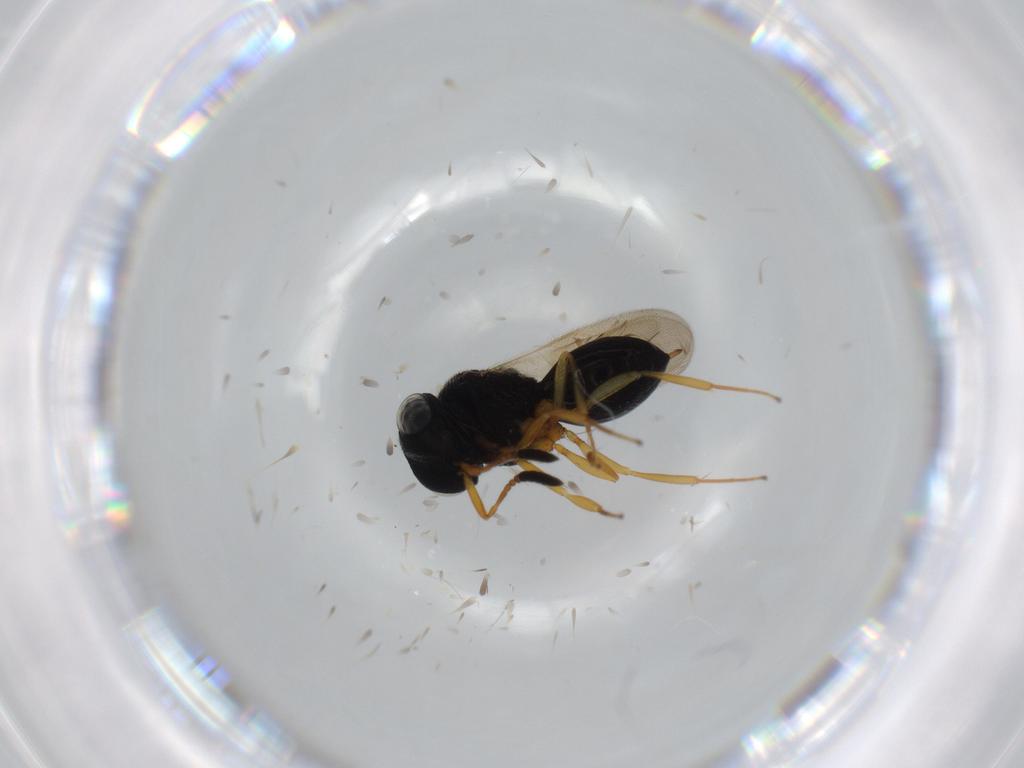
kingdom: Animalia
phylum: Arthropoda
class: Insecta
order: Hymenoptera
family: Scelionidae
